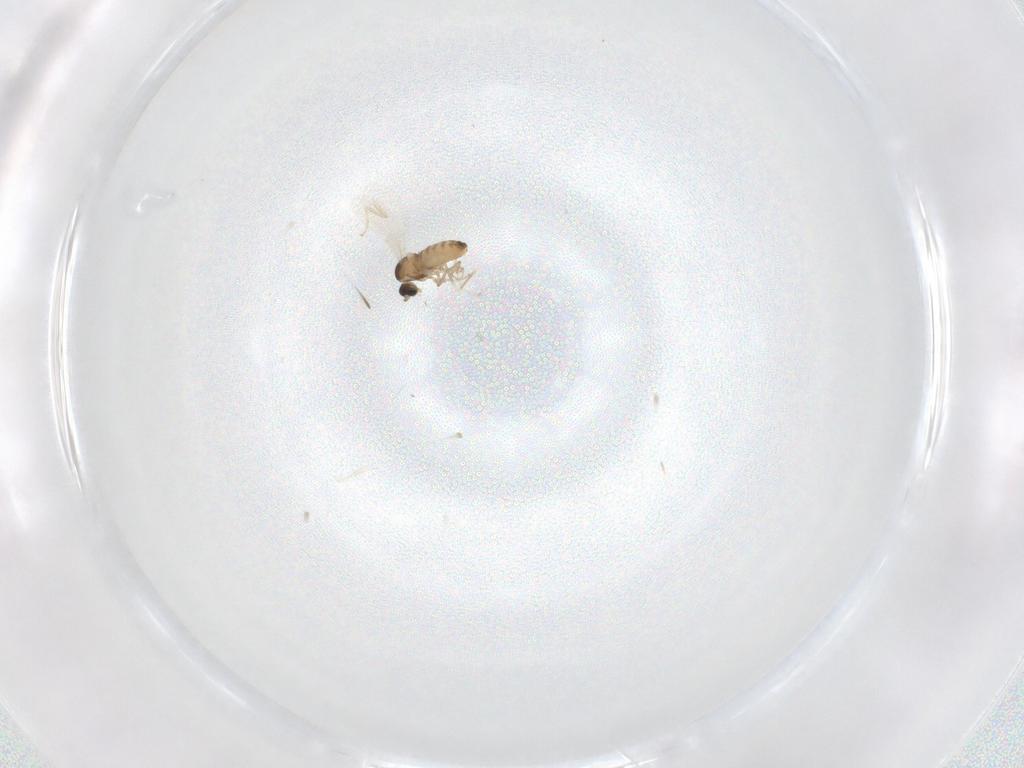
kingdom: Animalia
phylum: Arthropoda
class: Insecta
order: Diptera
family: Cecidomyiidae
